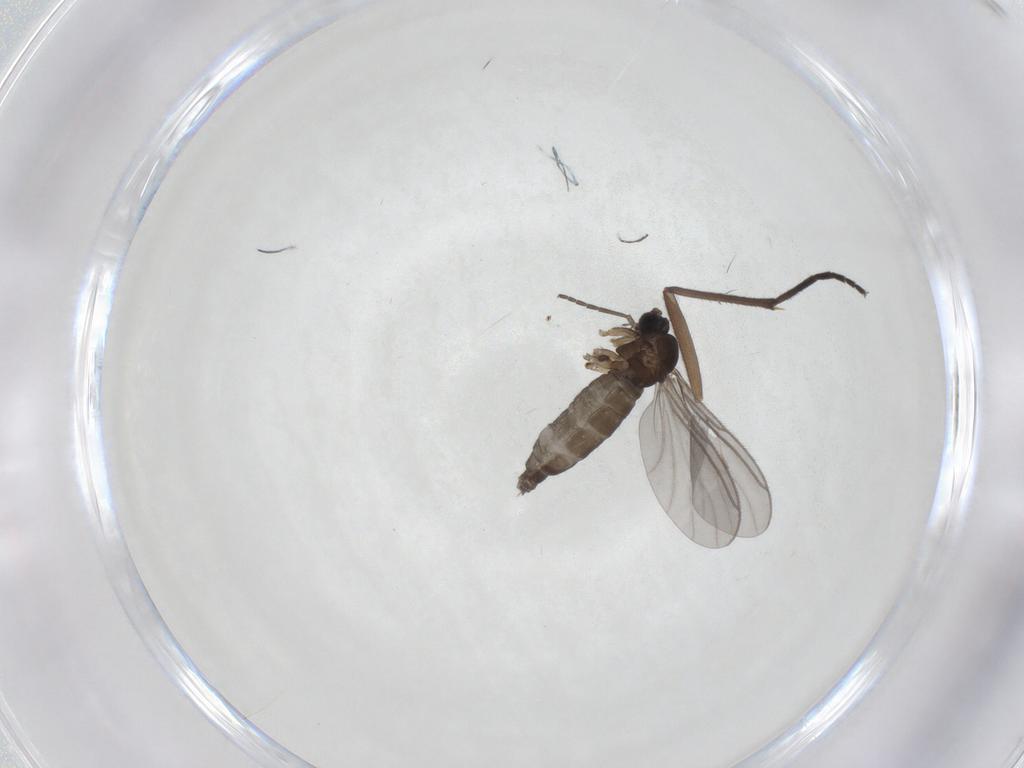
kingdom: Animalia
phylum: Arthropoda
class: Insecta
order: Diptera
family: Sciaridae
